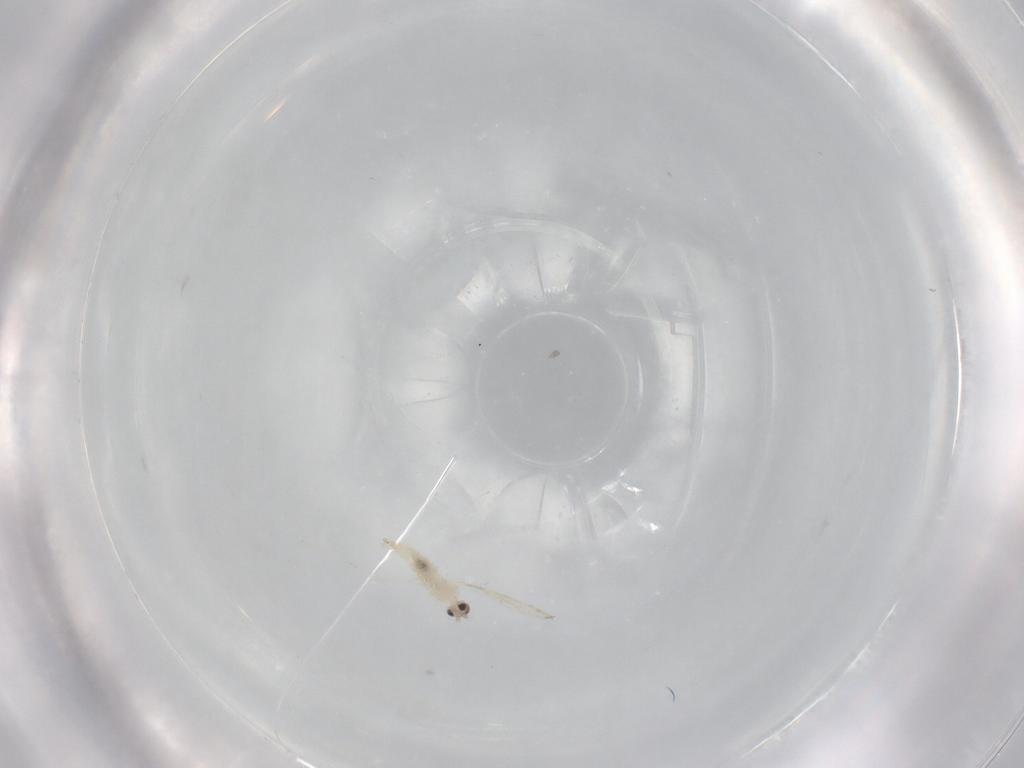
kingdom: Animalia
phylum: Arthropoda
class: Insecta
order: Diptera
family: Cecidomyiidae
